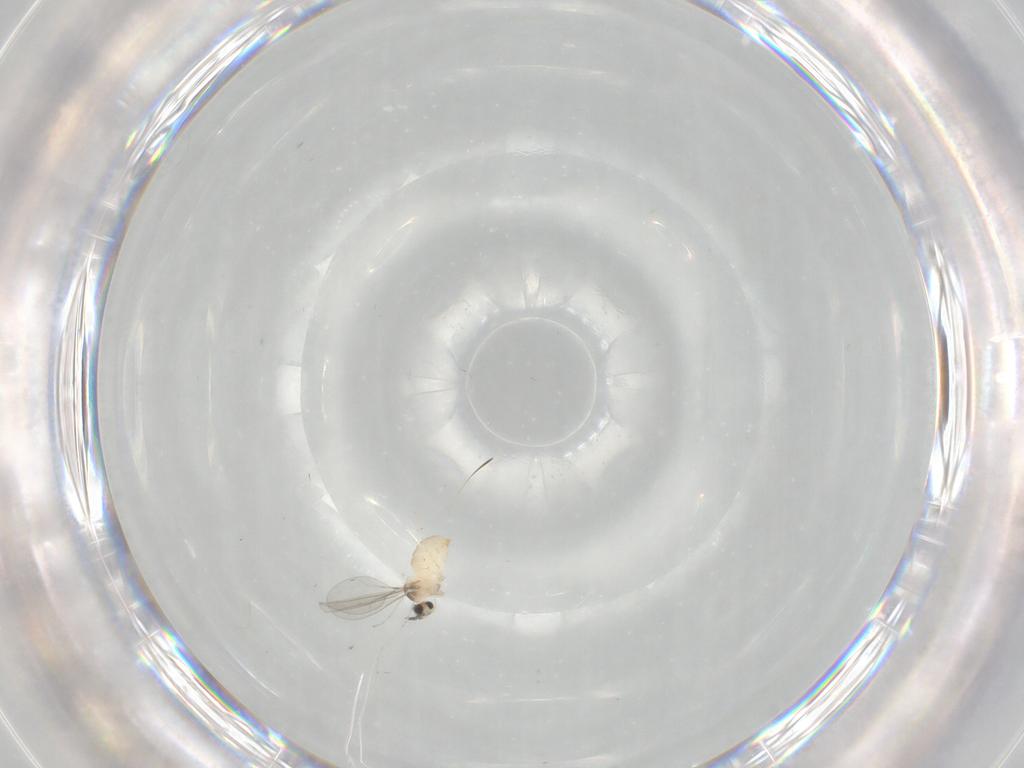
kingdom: Animalia
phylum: Arthropoda
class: Insecta
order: Diptera
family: Cecidomyiidae
